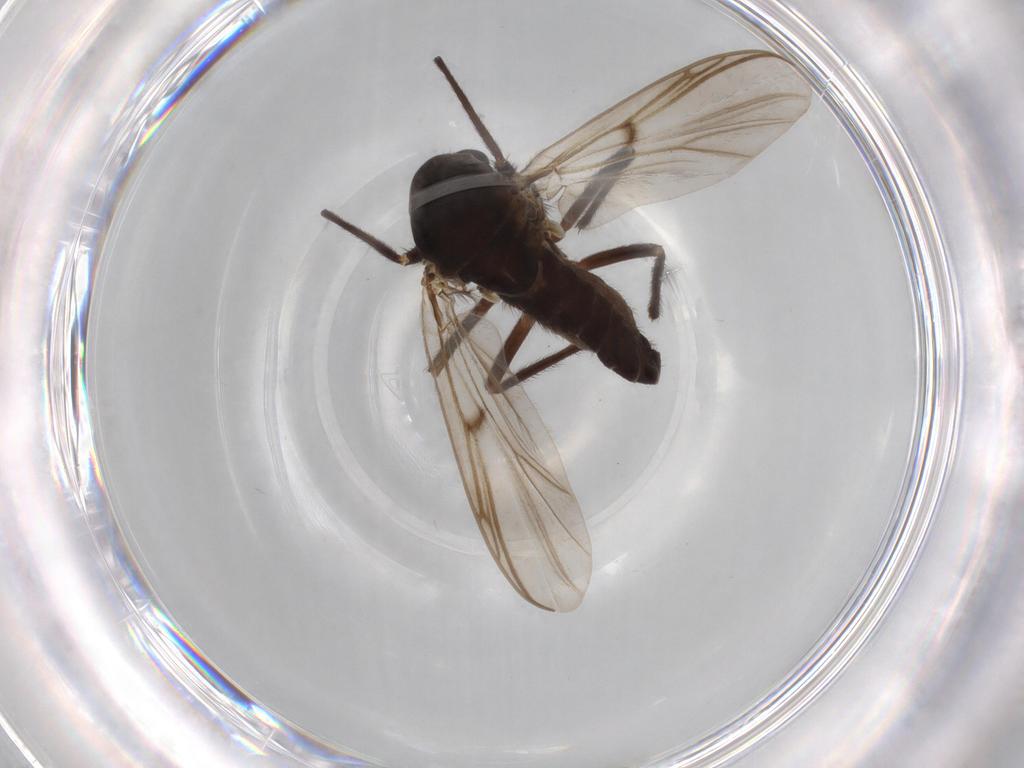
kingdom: Animalia
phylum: Arthropoda
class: Insecta
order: Diptera
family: Chironomidae
